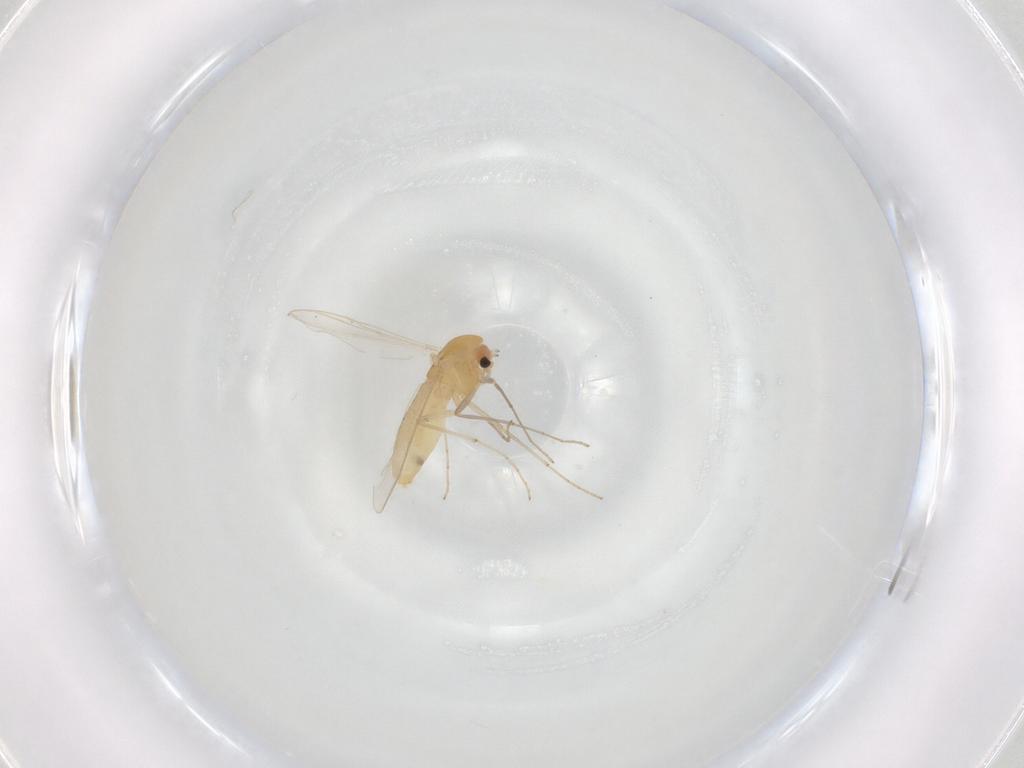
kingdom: Animalia
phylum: Arthropoda
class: Insecta
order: Diptera
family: Chironomidae
